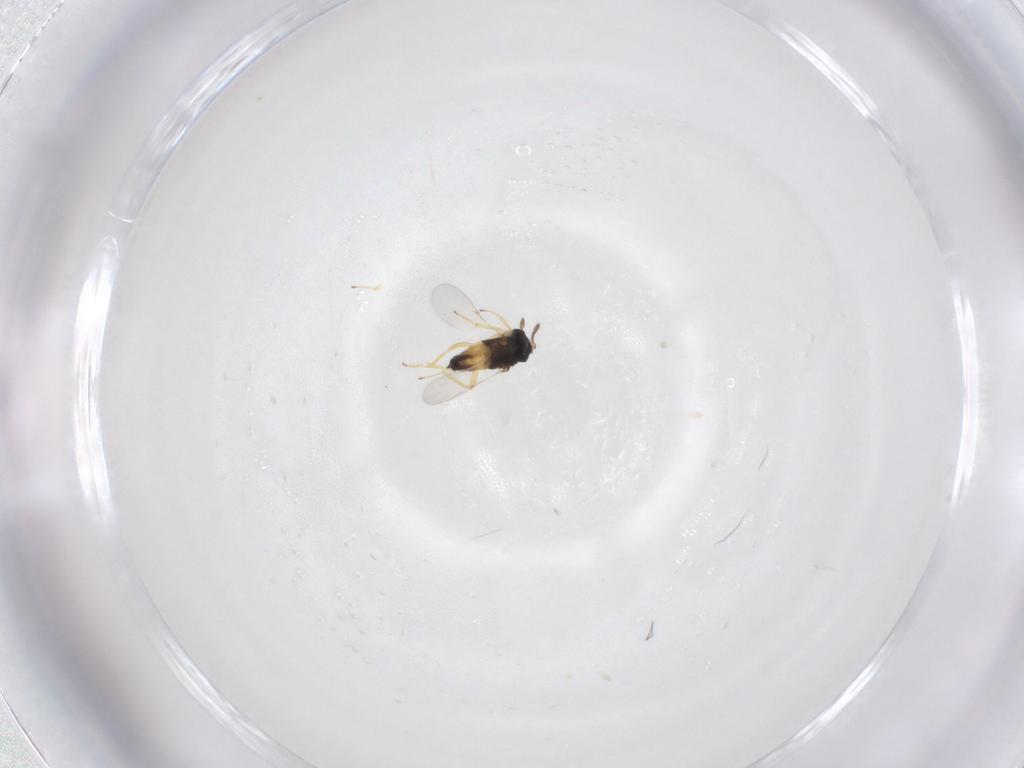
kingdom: Animalia
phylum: Arthropoda
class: Insecta
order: Hymenoptera
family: Encyrtidae
